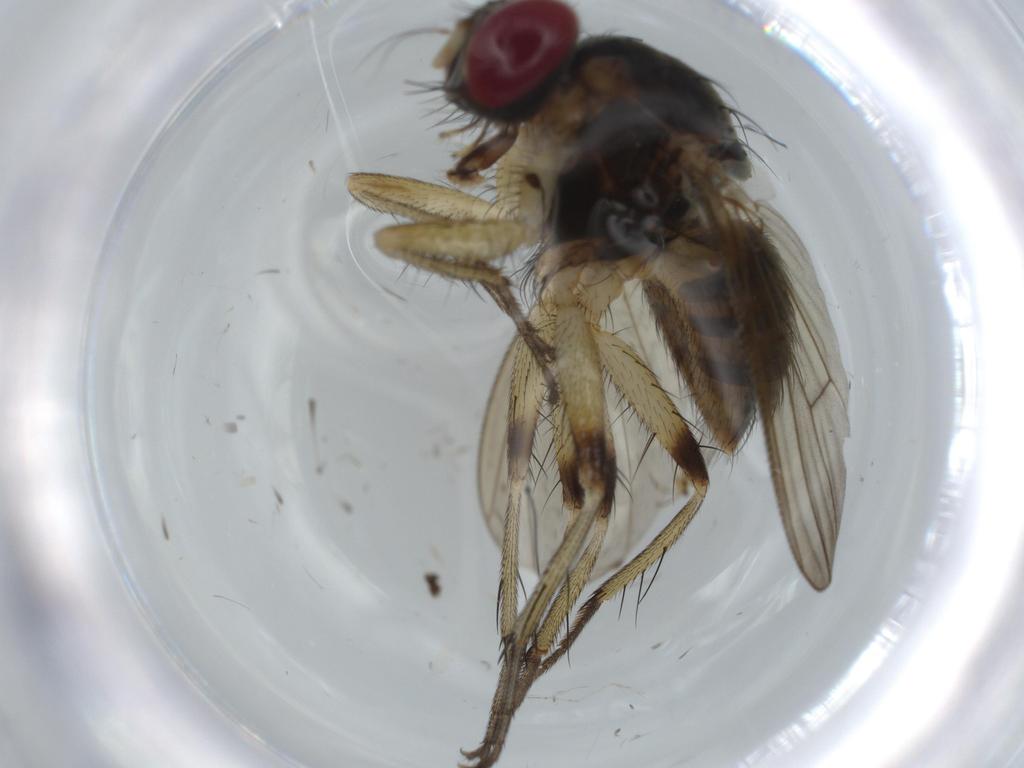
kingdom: Animalia
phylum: Arthropoda
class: Insecta
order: Diptera
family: Muscidae
